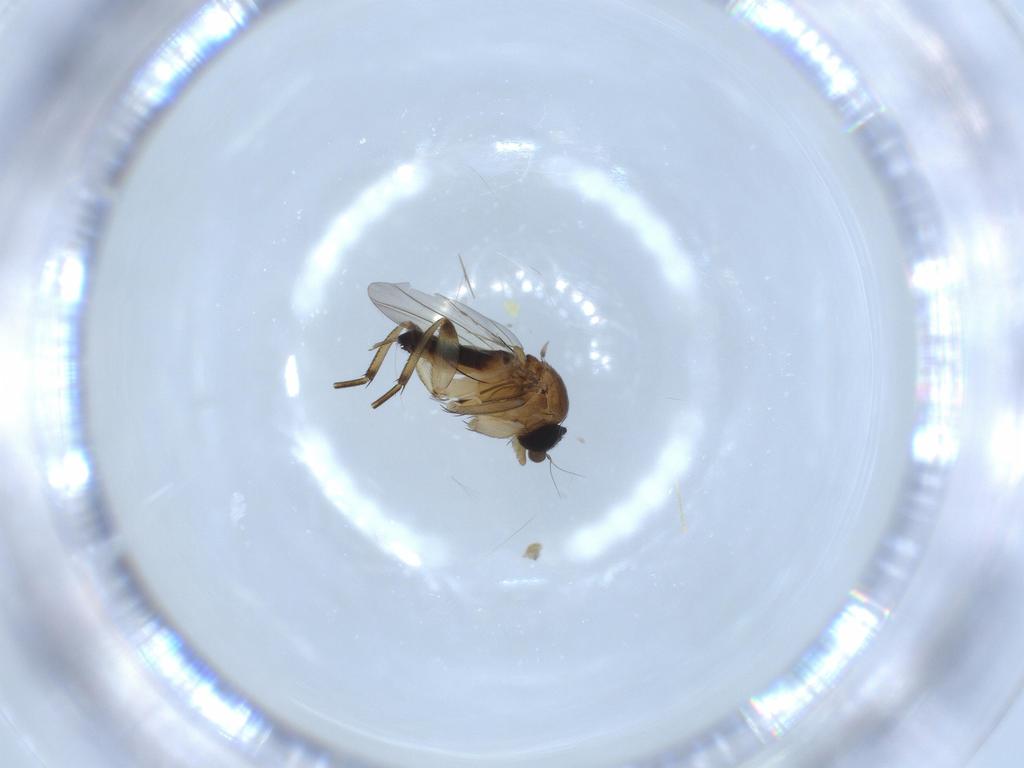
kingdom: Animalia
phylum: Arthropoda
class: Insecta
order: Diptera
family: Phoridae
